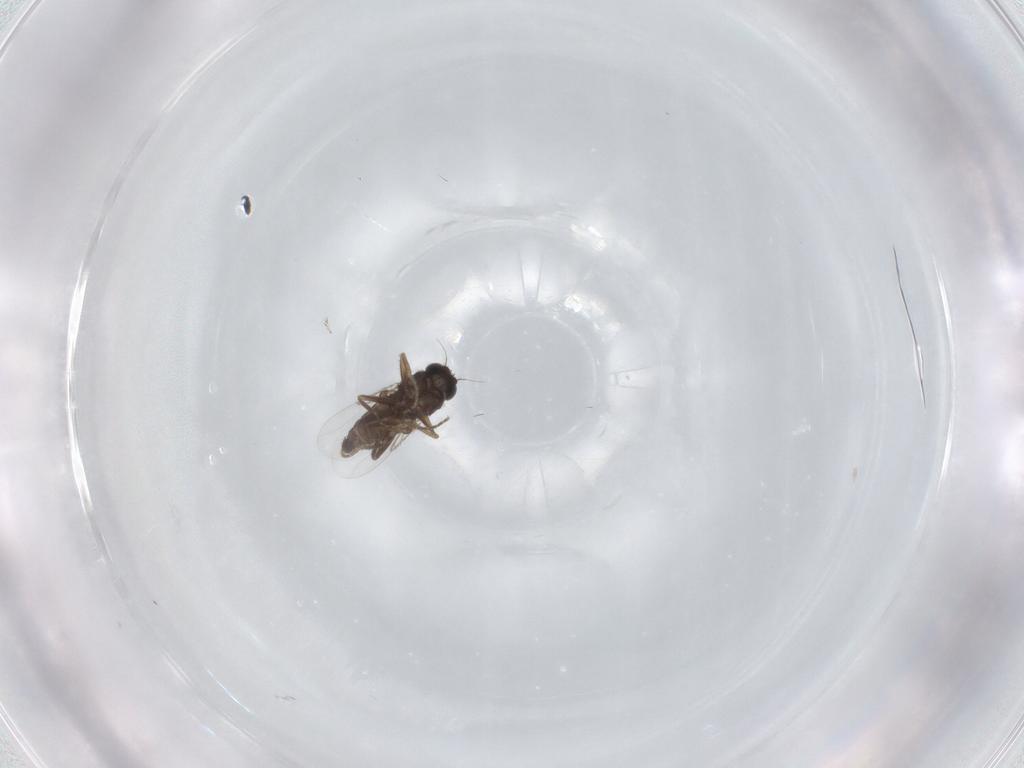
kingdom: Animalia
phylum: Arthropoda
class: Insecta
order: Diptera
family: Phoridae
